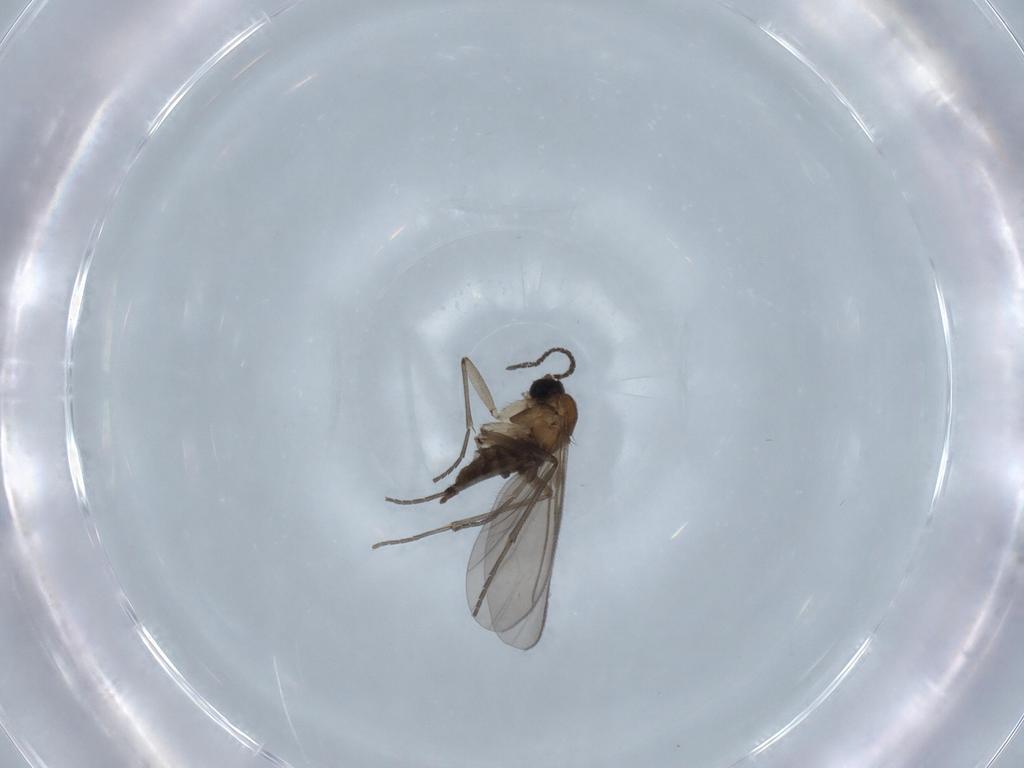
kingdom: Animalia
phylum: Arthropoda
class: Insecta
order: Diptera
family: Sciaridae
